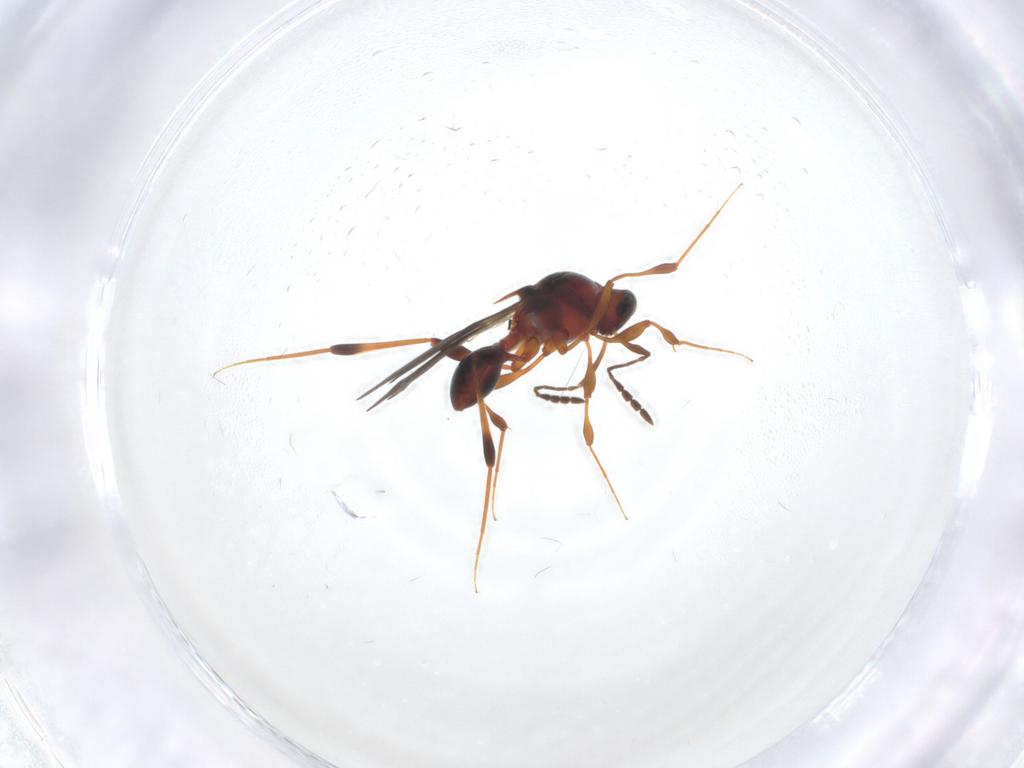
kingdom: Animalia
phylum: Arthropoda
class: Insecta
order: Hymenoptera
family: Platygastridae
